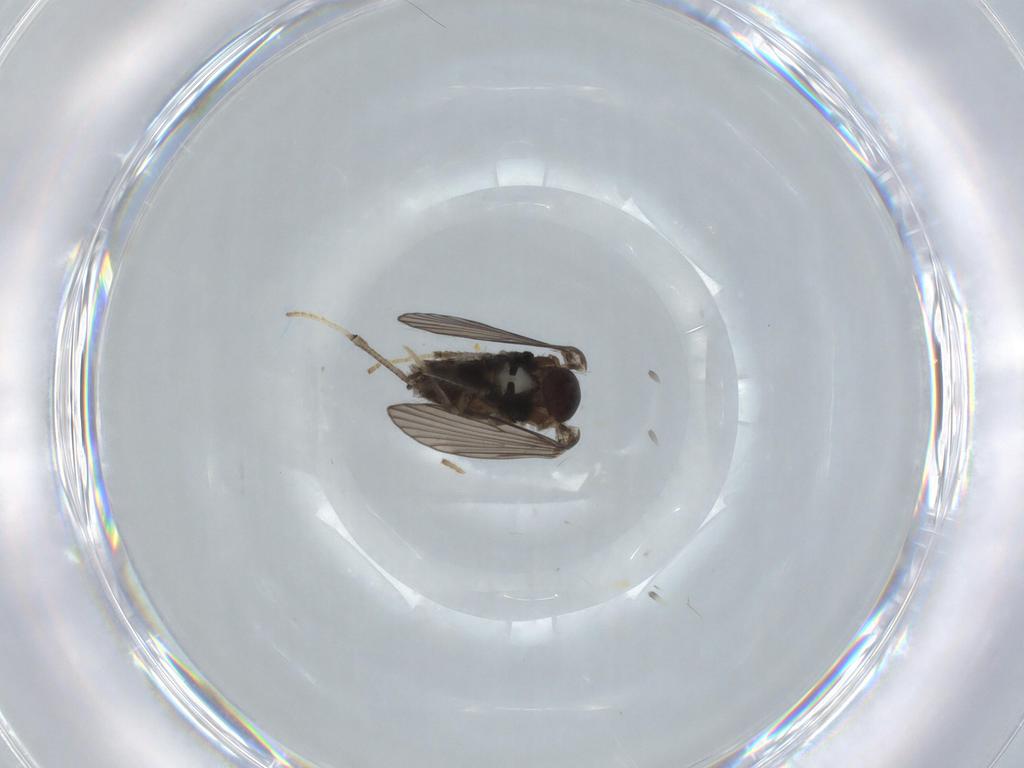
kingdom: Animalia
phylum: Arthropoda
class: Insecta
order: Diptera
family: Psychodidae
